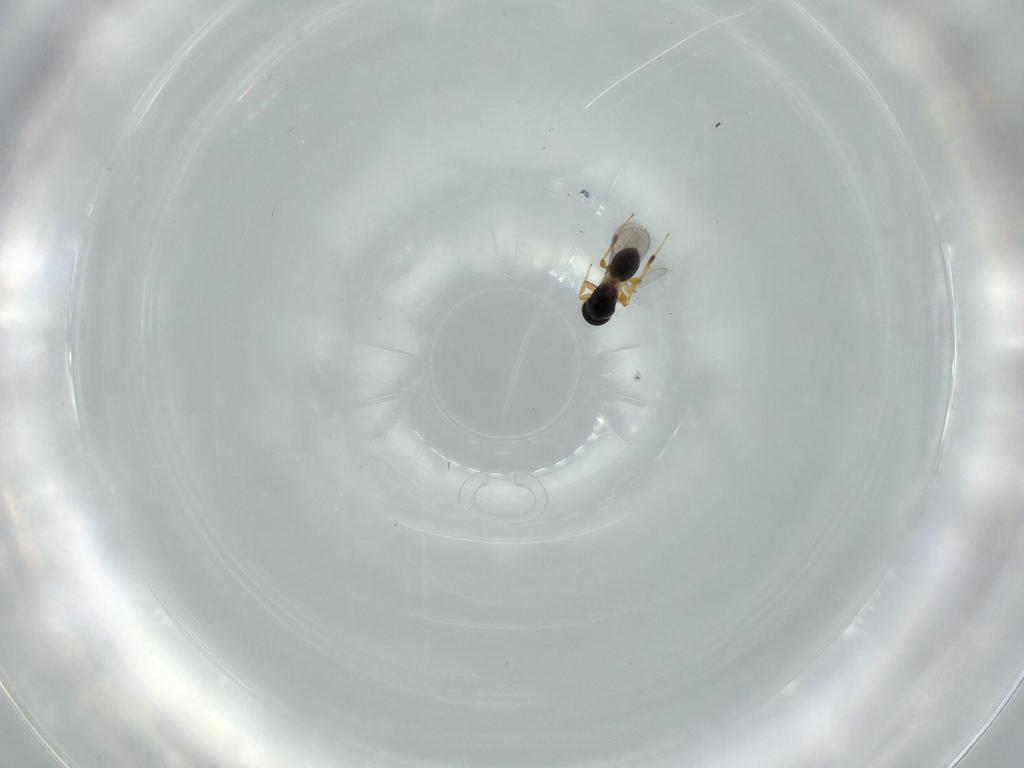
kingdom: Animalia
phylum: Arthropoda
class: Insecta
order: Hymenoptera
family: Platygastridae
